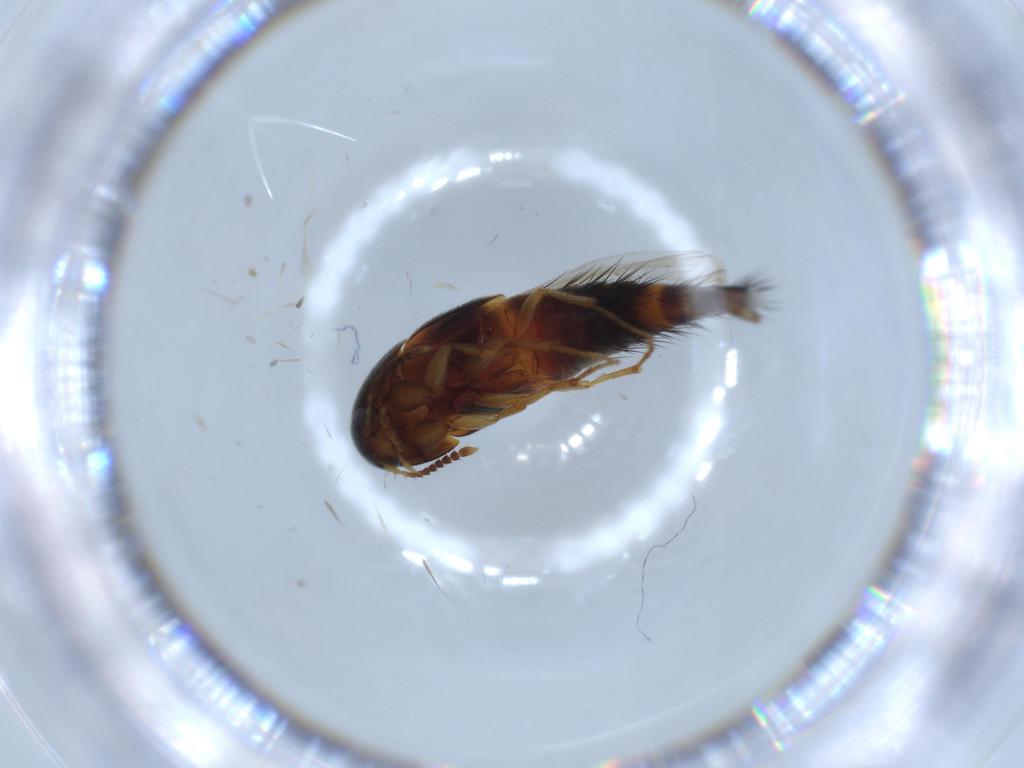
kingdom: Animalia
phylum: Arthropoda
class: Insecta
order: Coleoptera
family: Staphylinidae
